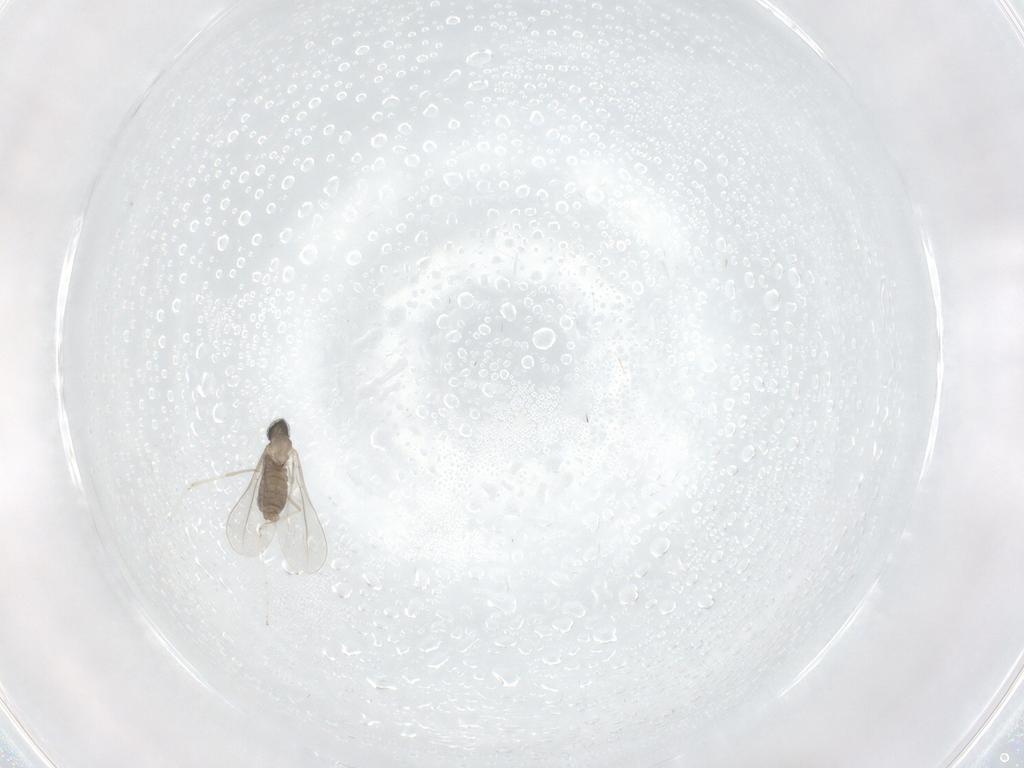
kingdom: Animalia
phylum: Arthropoda
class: Insecta
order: Diptera
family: Cecidomyiidae
